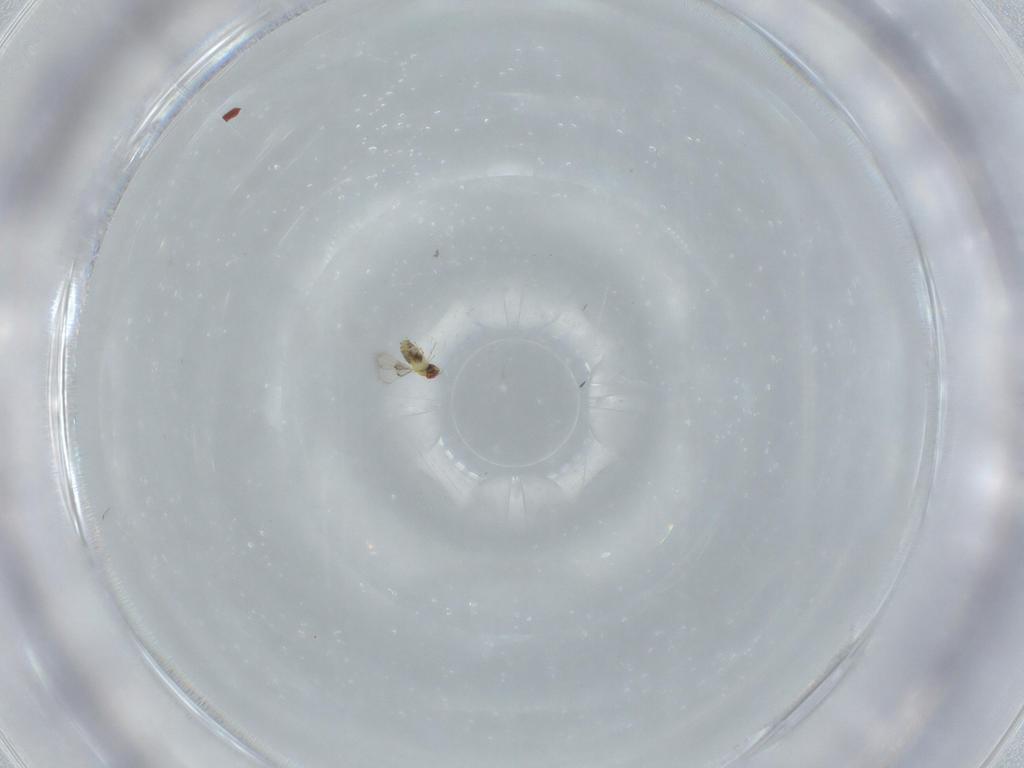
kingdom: Animalia
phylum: Arthropoda
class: Insecta
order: Hymenoptera
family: Trichogrammatidae
